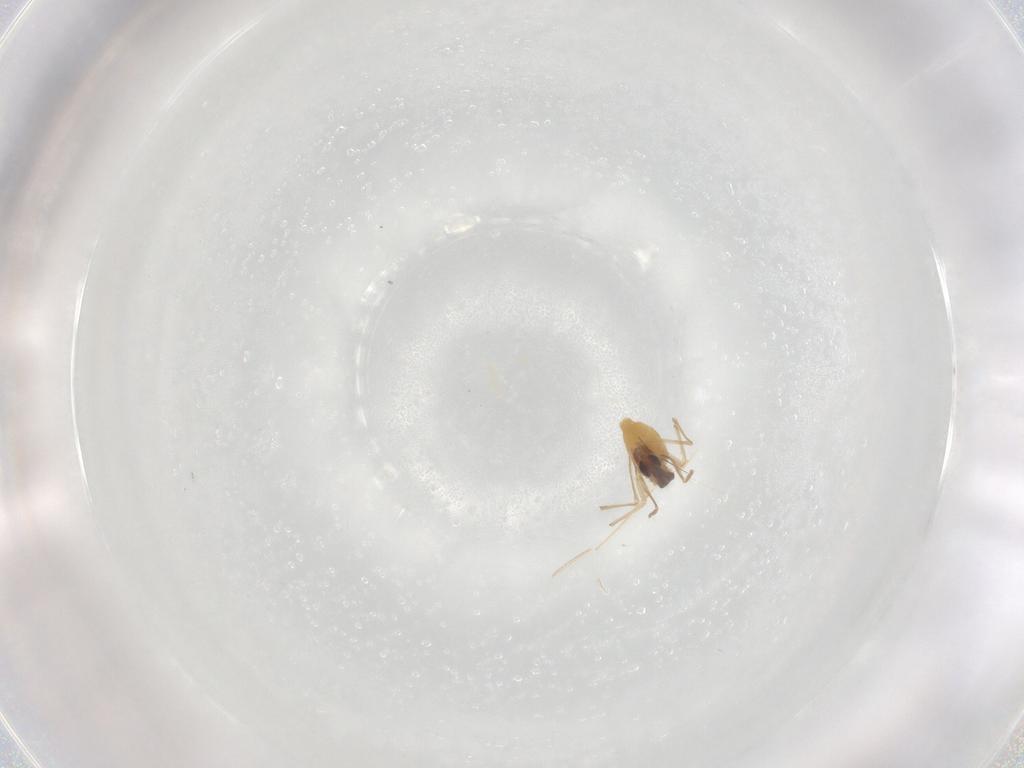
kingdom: Animalia
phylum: Arthropoda
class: Insecta
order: Diptera
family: Chironomidae
